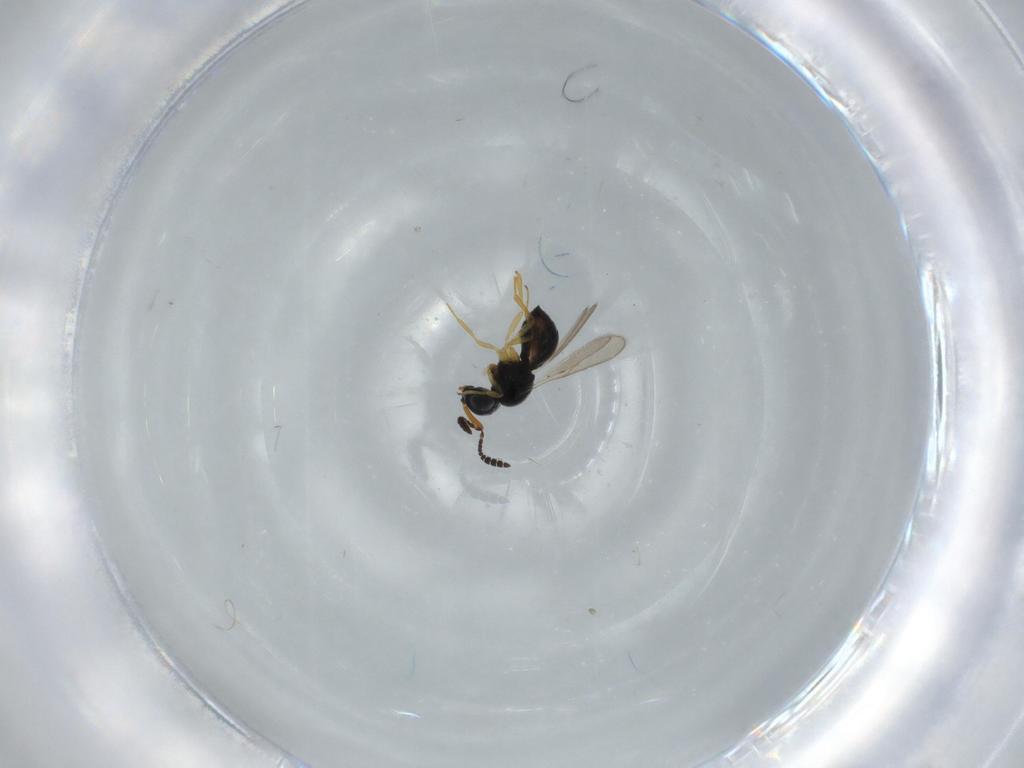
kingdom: Animalia
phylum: Arthropoda
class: Insecta
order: Hymenoptera
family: Scelionidae
